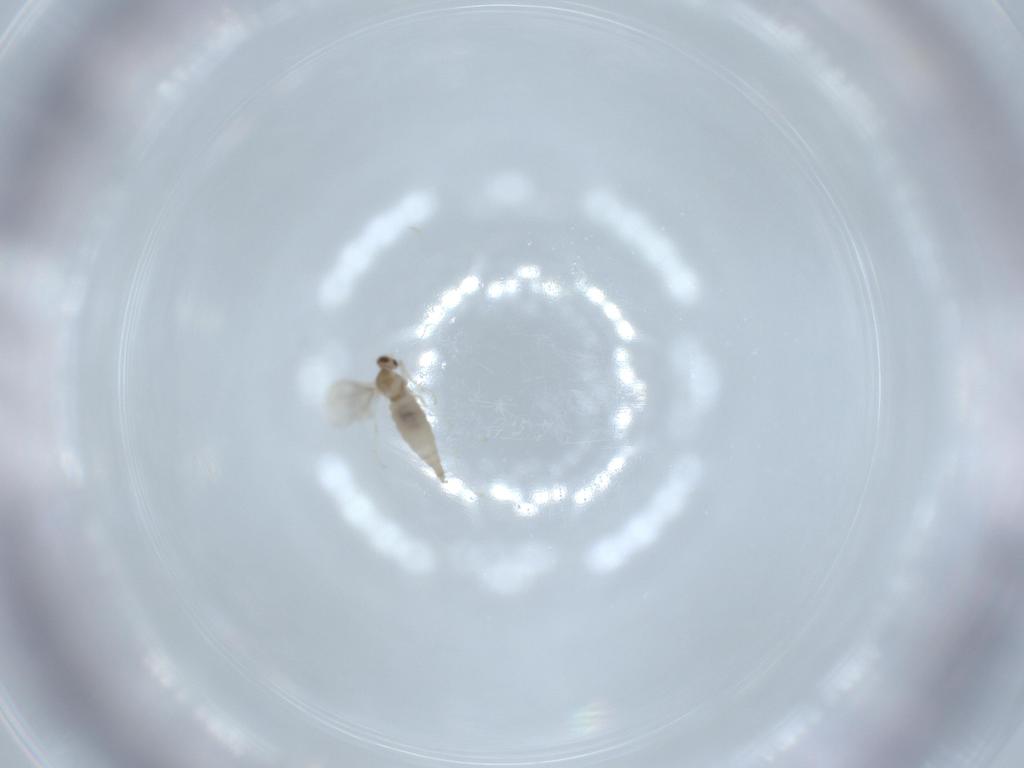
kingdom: Animalia
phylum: Arthropoda
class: Insecta
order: Diptera
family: Cecidomyiidae
